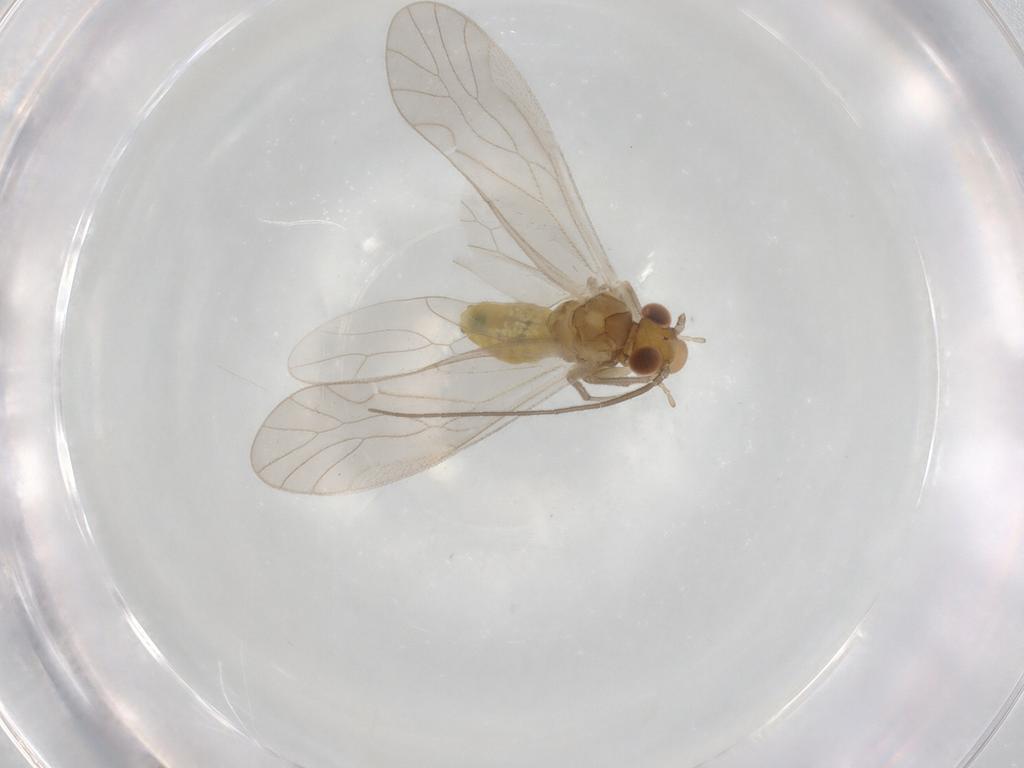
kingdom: Animalia
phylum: Arthropoda
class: Insecta
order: Psocodea
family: Caeciliusidae
